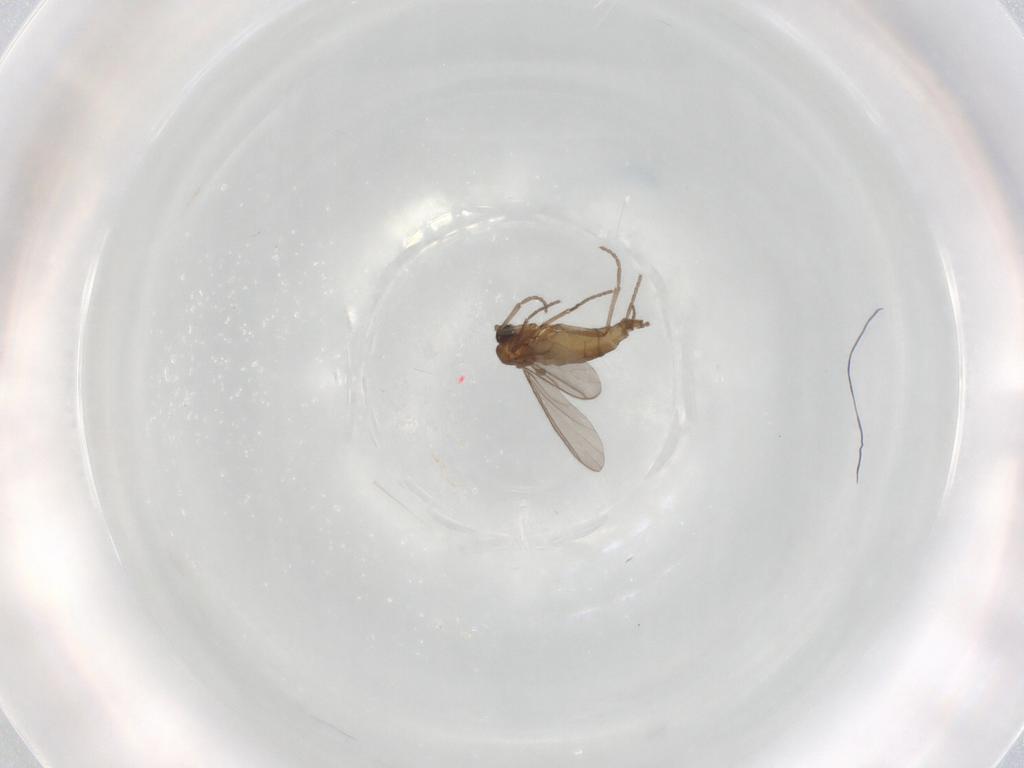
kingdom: Animalia
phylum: Arthropoda
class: Insecta
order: Diptera
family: Sciaridae
